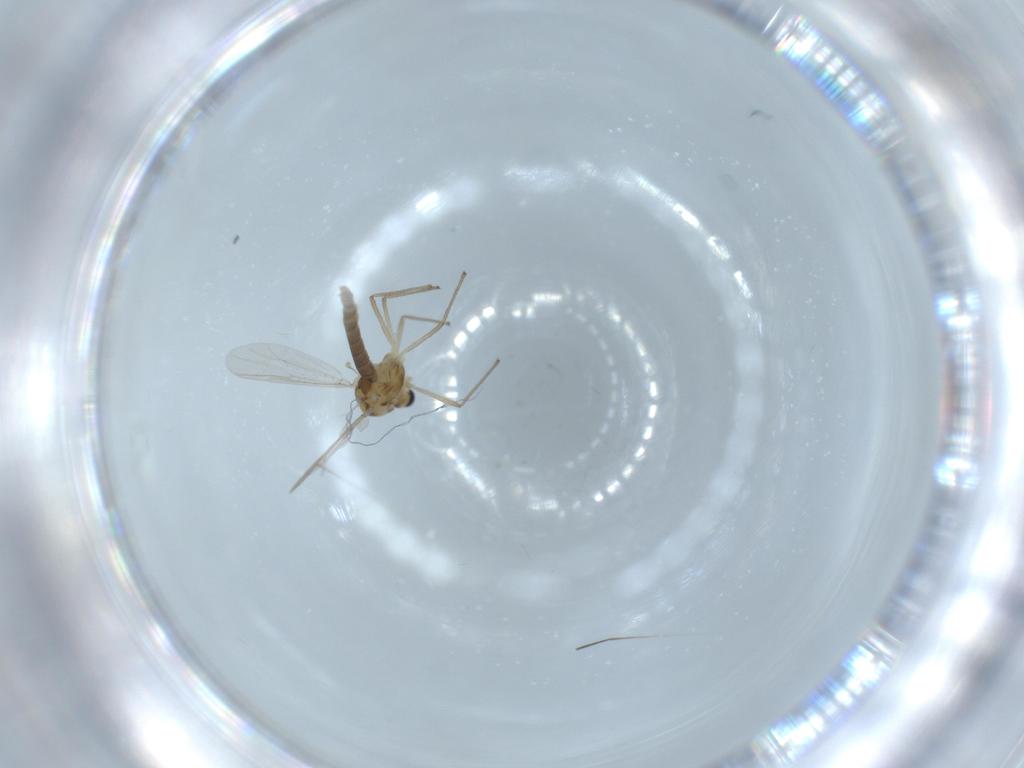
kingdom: Animalia
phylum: Arthropoda
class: Insecta
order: Diptera
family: Chironomidae
